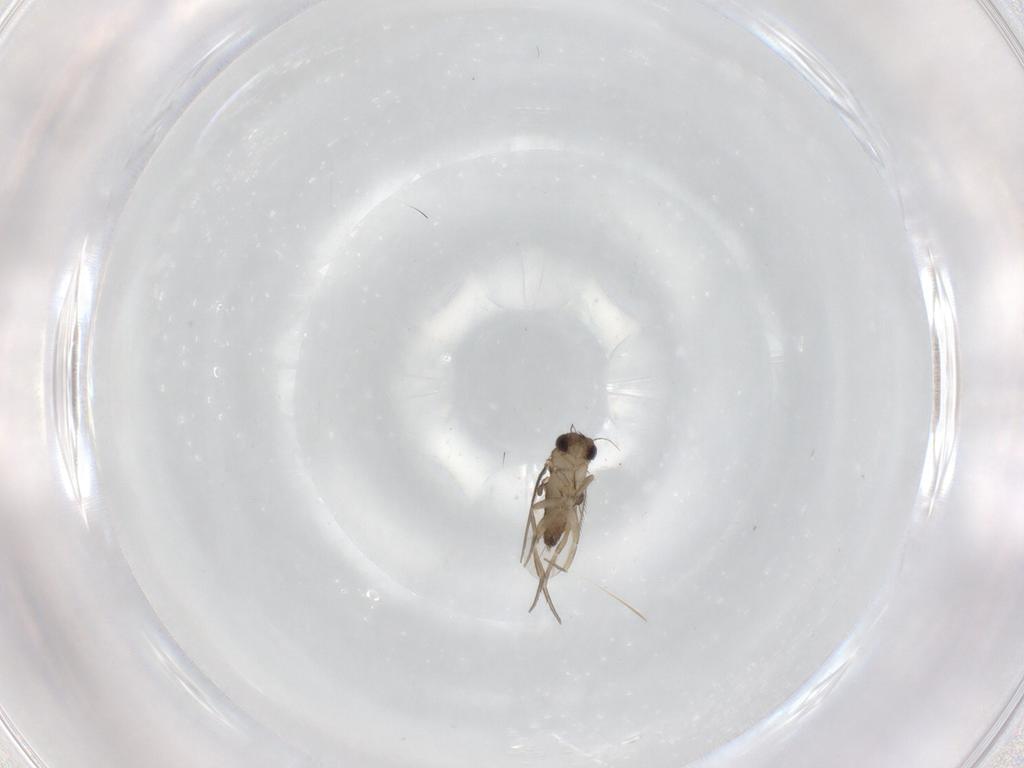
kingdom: Animalia
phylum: Arthropoda
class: Insecta
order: Diptera
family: Phoridae
